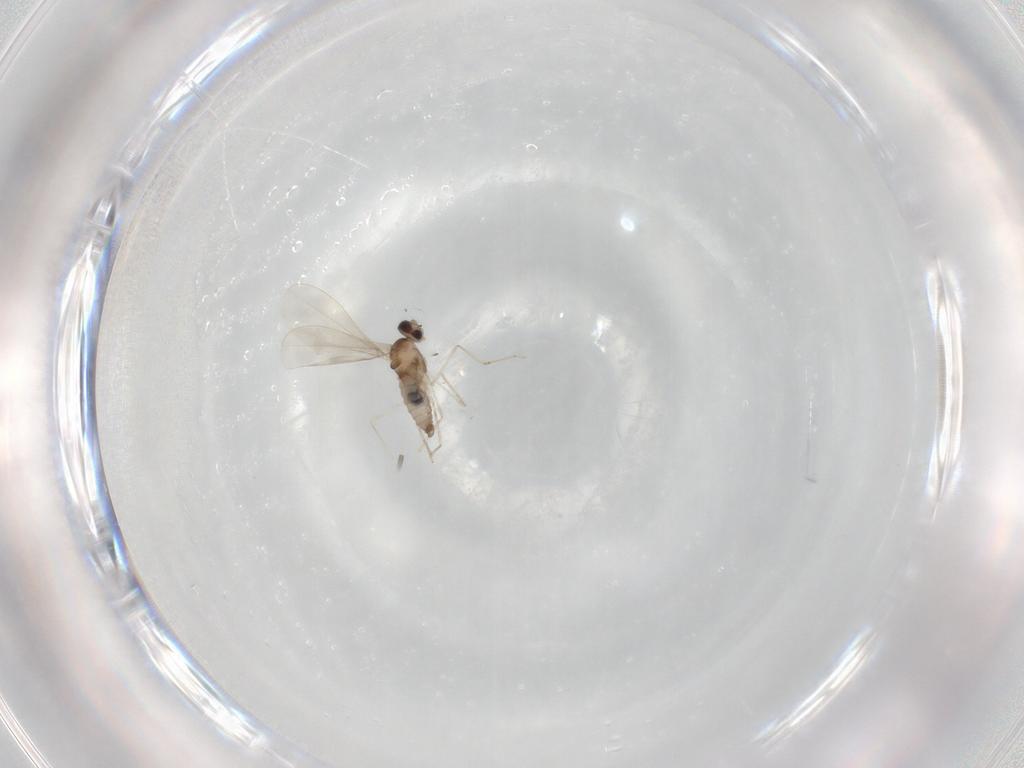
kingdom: Animalia
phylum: Arthropoda
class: Insecta
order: Diptera
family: Cecidomyiidae
